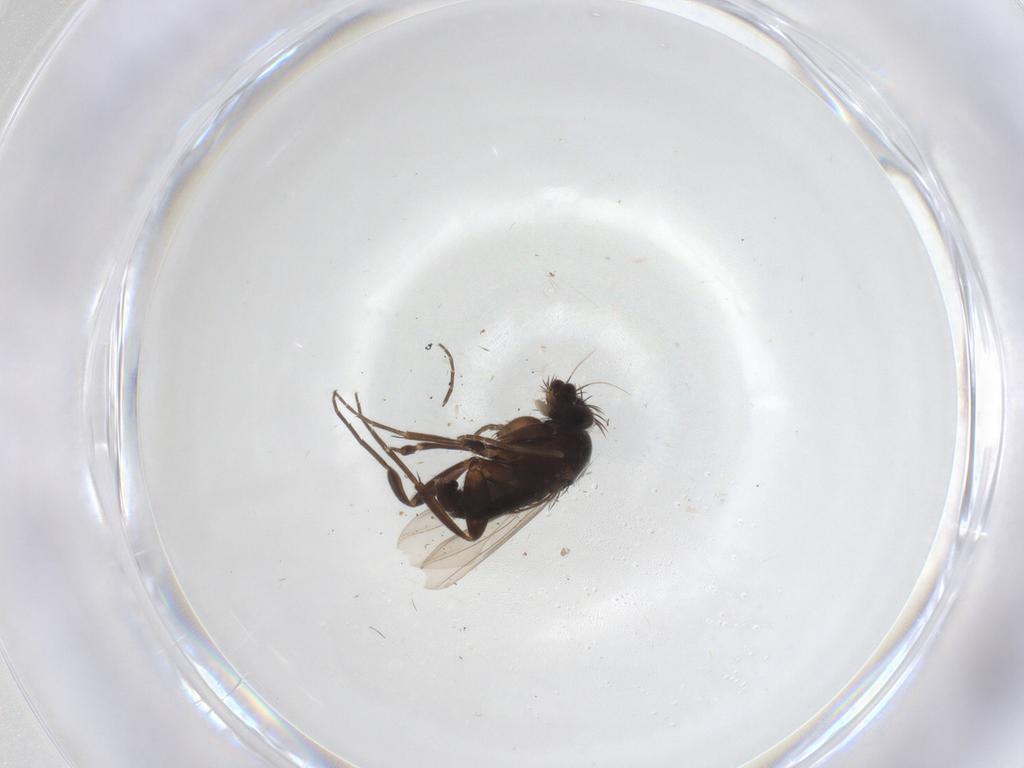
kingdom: Animalia
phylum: Arthropoda
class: Insecta
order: Diptera
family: Phoridae
